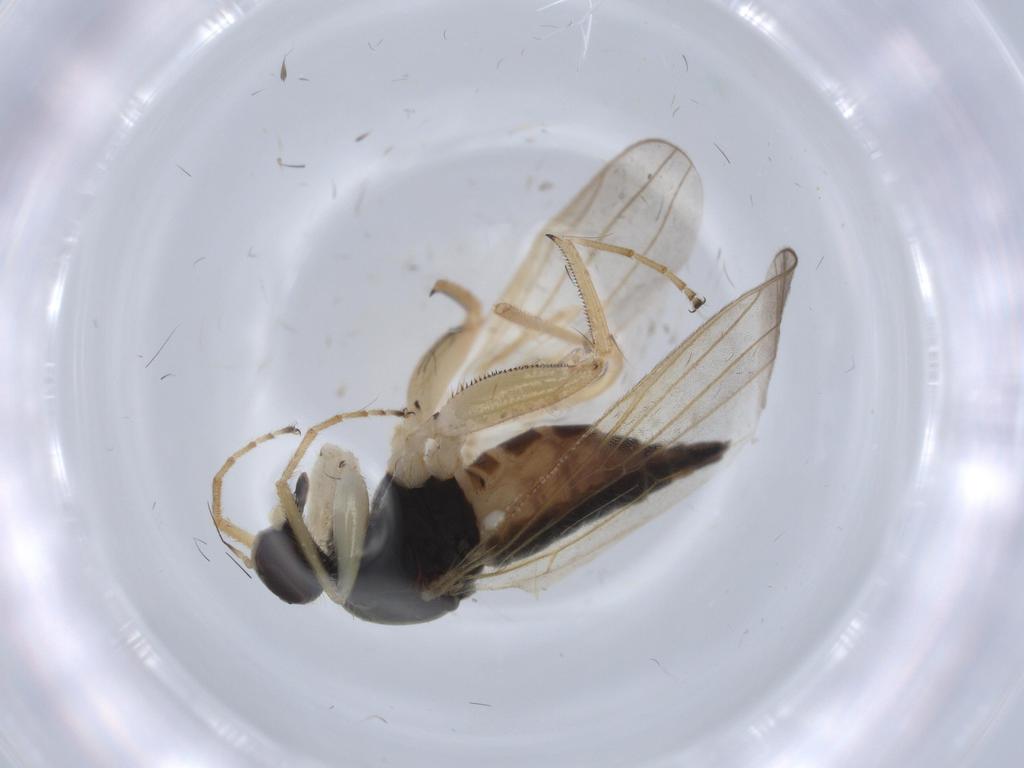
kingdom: Animalia
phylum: Arthropoda
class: Insecta
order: Diptera
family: Hybotidae
